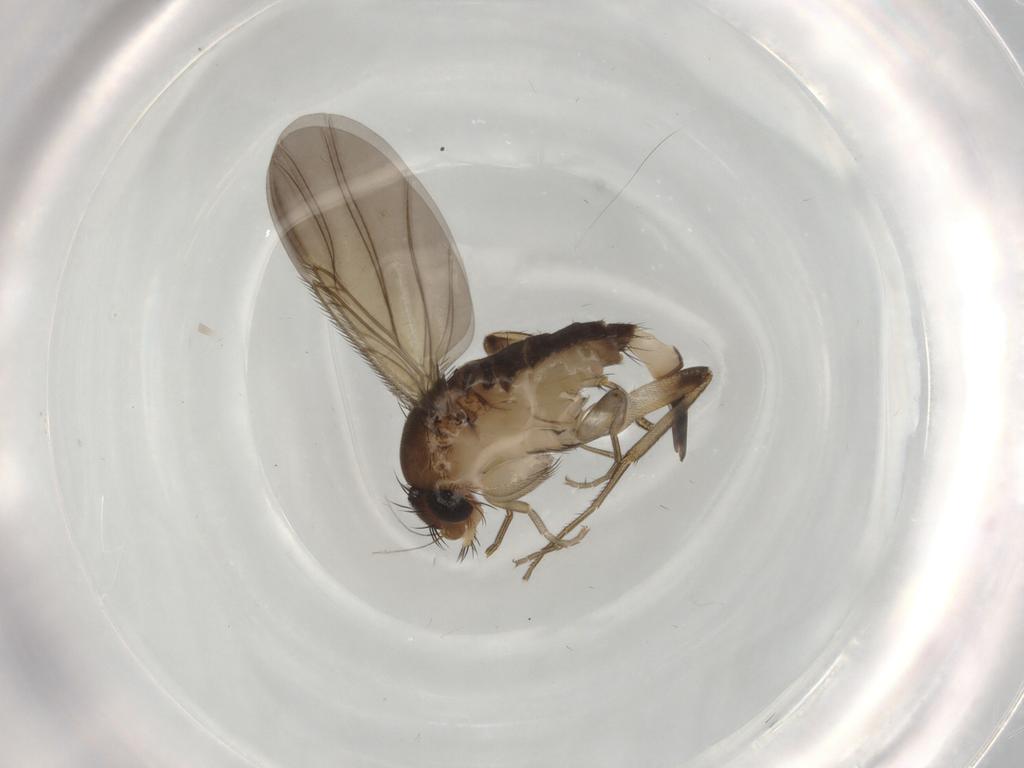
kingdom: Animalia
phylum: Arthropoda
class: Insecta
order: Diptera
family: Phoridae
